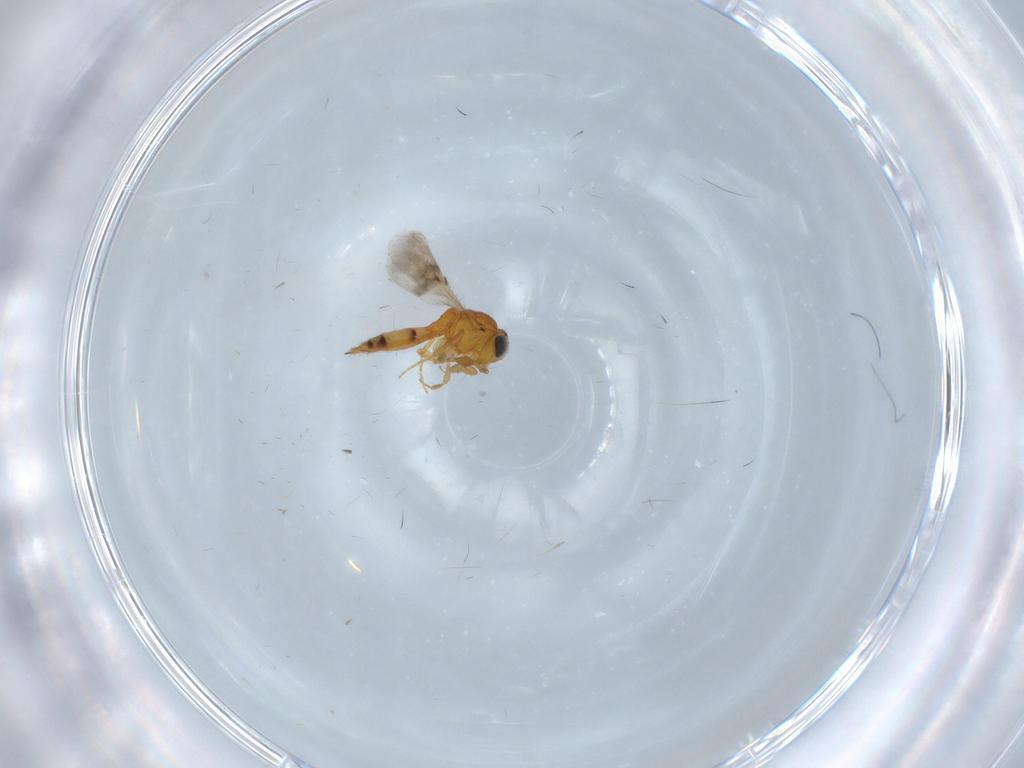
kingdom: Animalia
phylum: Arthropoda
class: Insecta
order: Hymenoptera
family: Scelionidae
